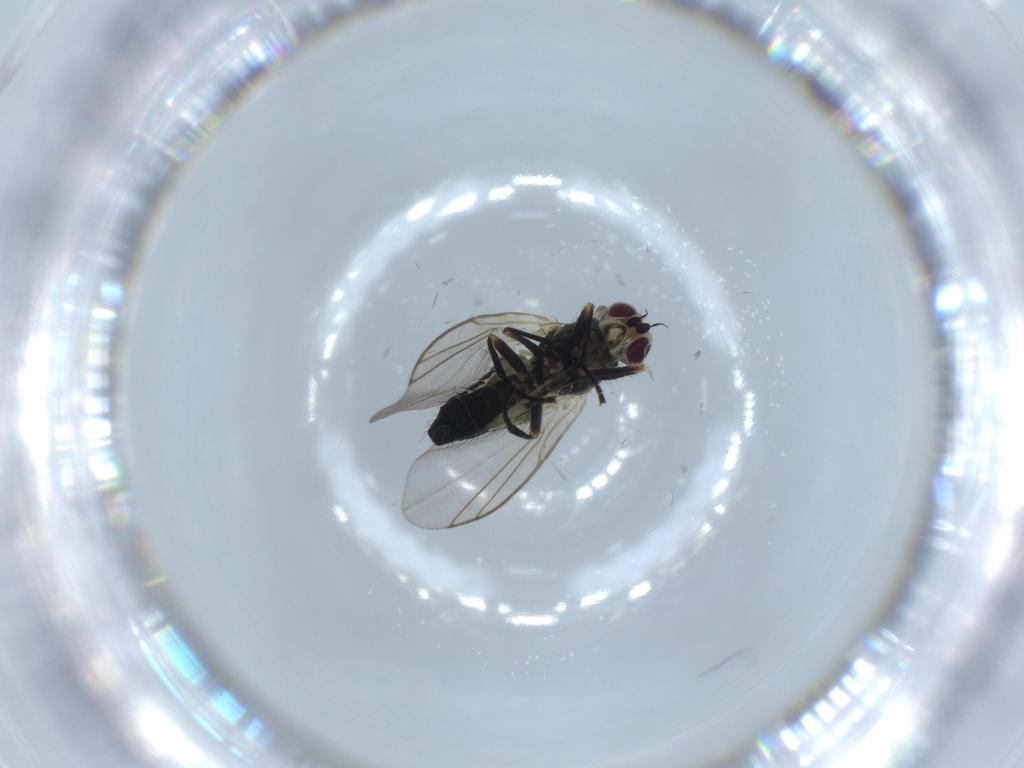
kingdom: Animalia
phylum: Arthropoda
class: Insecta
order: Diptera
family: Agromyzidae
